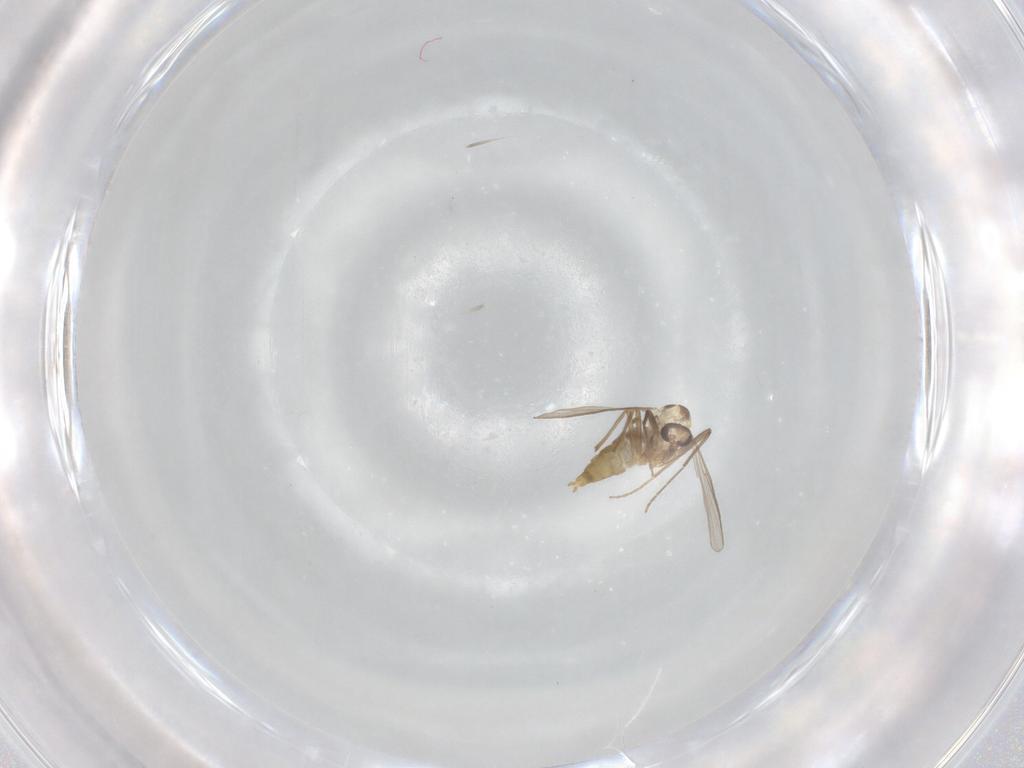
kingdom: Animalia
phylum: Arthropoda
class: Insecta
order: Diptera
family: Chironomidae
